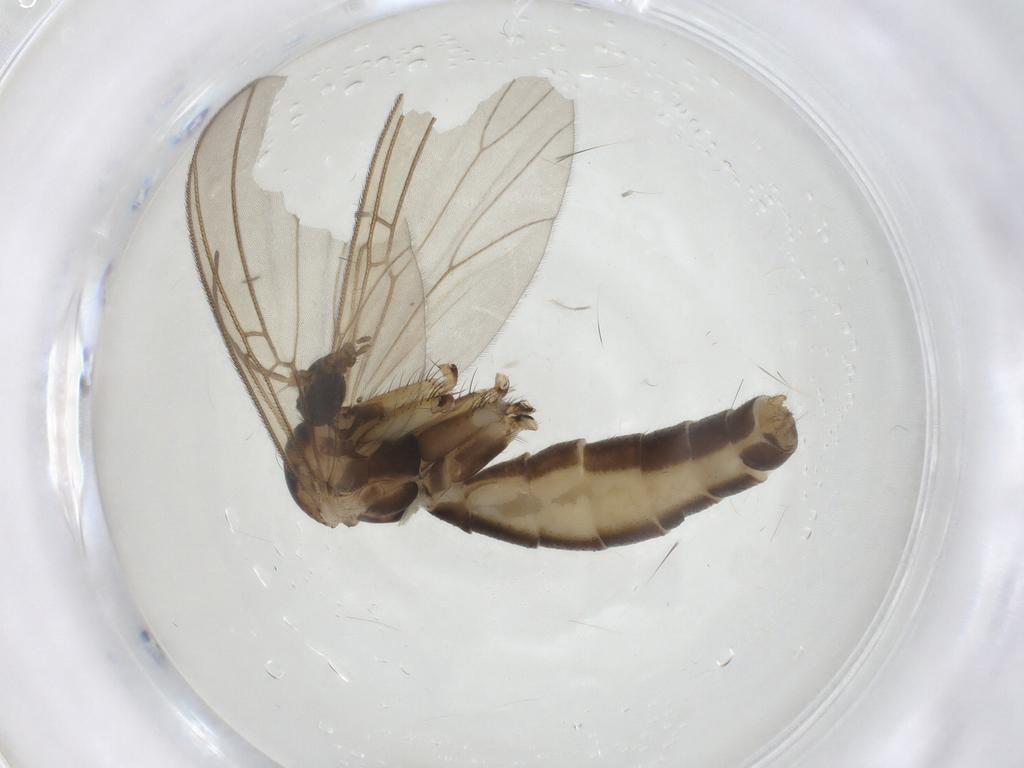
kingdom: Animalia
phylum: Arthropoda
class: Insecta
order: Diptera
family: Mycetophilidae
